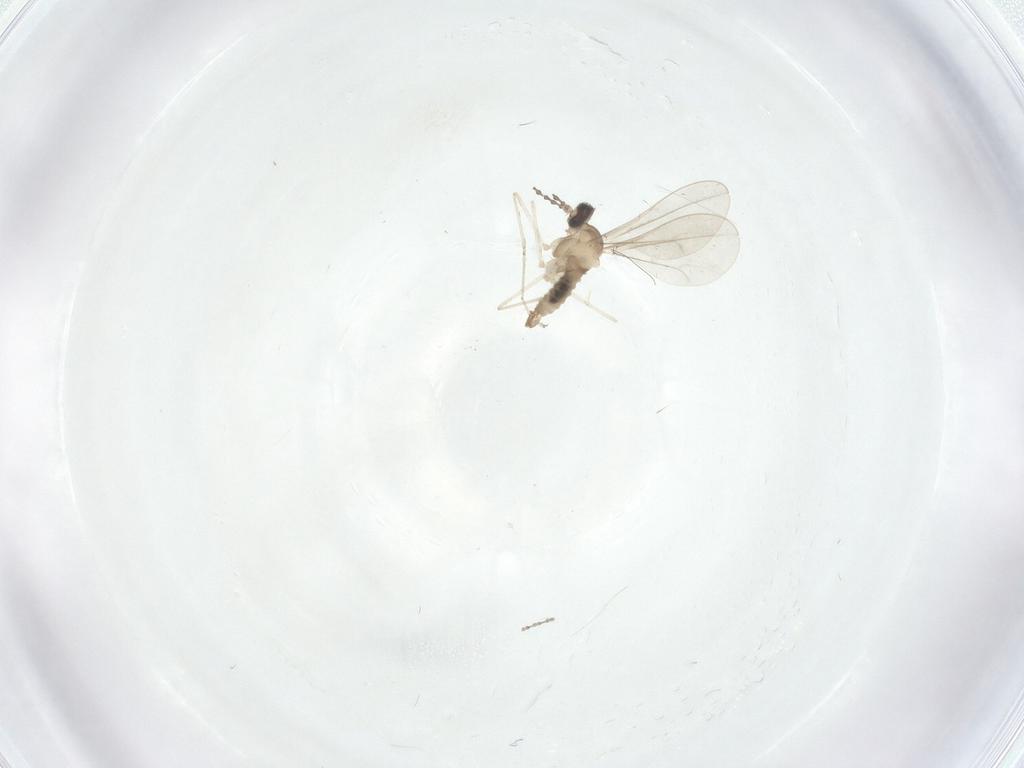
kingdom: Animalia
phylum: Arthropoda
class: Insecta
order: Diptera
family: Cecidomyiidae
